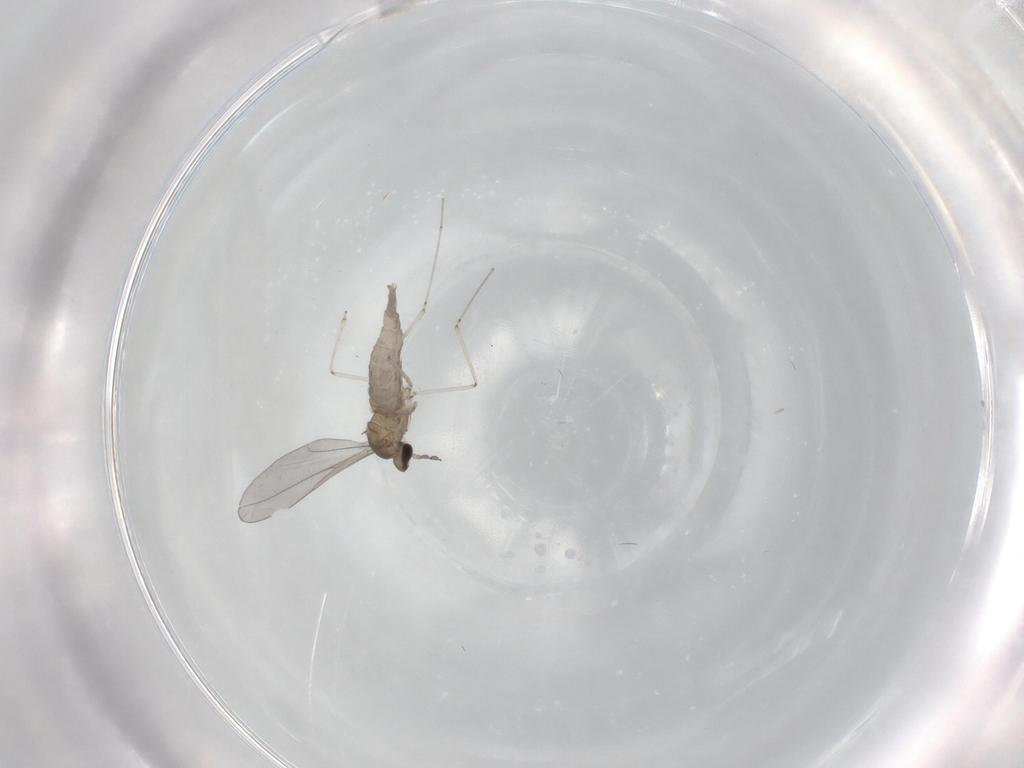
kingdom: Animalia
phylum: Arthropoda
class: Insecta
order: Diptera
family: Cecidomyiidae
